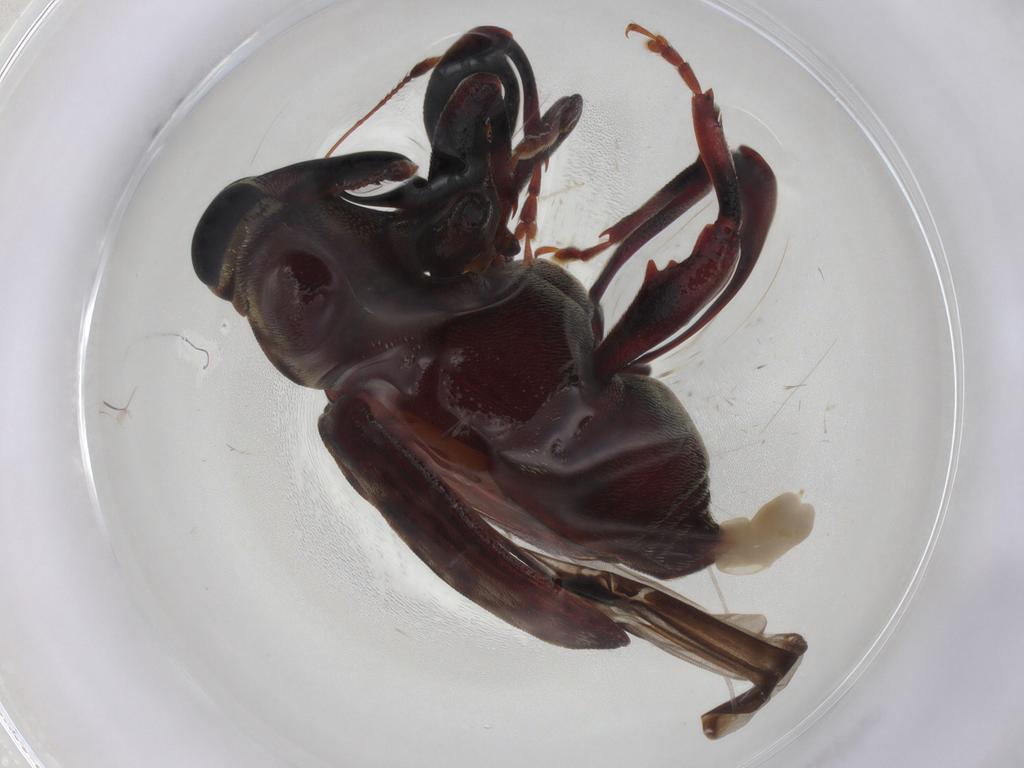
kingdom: Animalia
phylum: Arthropoda
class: Insecta
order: Coleoptera
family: Curculionidae
